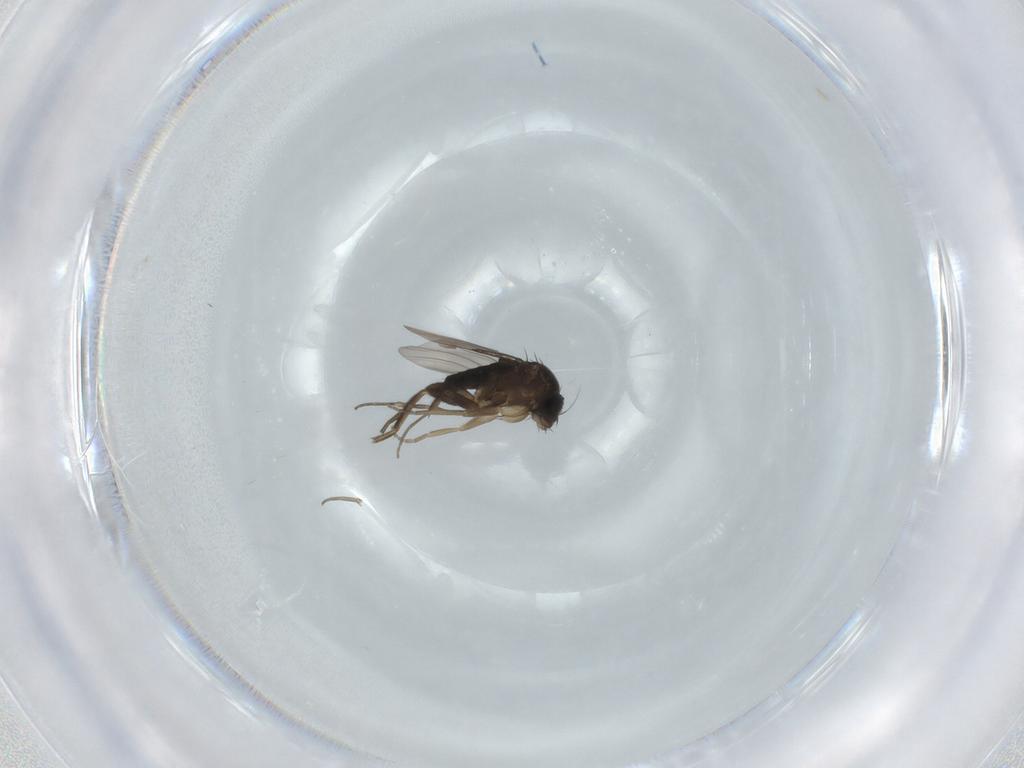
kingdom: Animalia
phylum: Arthropoda
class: Insecta
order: Diptera
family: Phoridae
